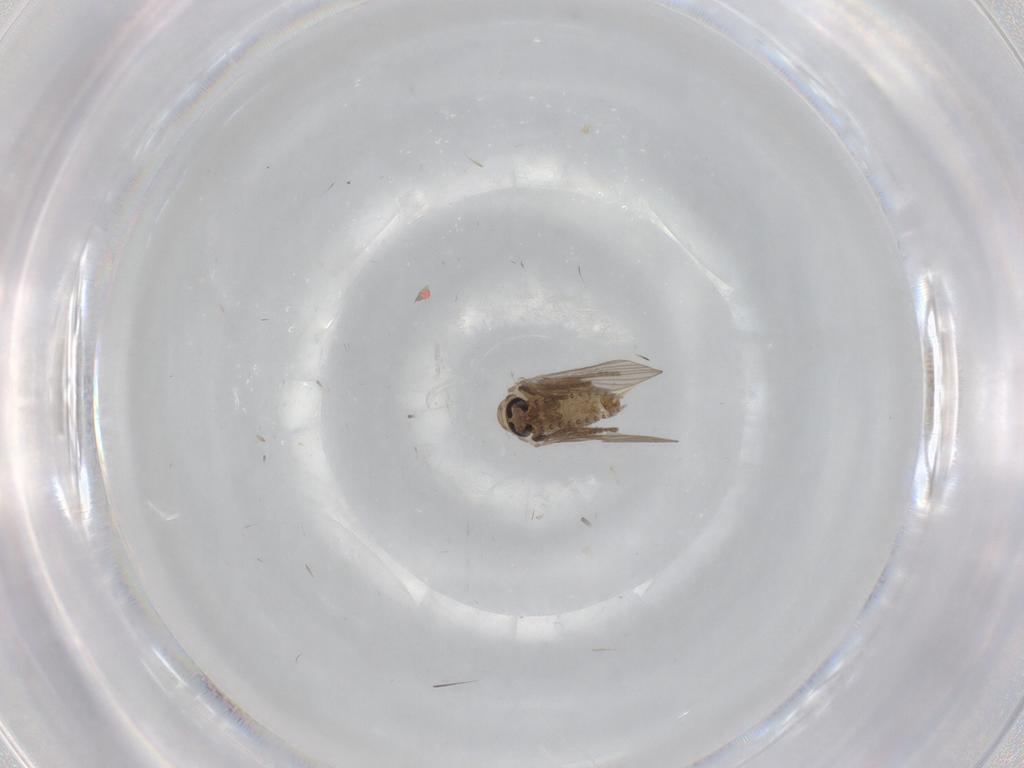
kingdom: Animalia
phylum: Arthropoda
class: Insecta
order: Diptera
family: Psychodidae
